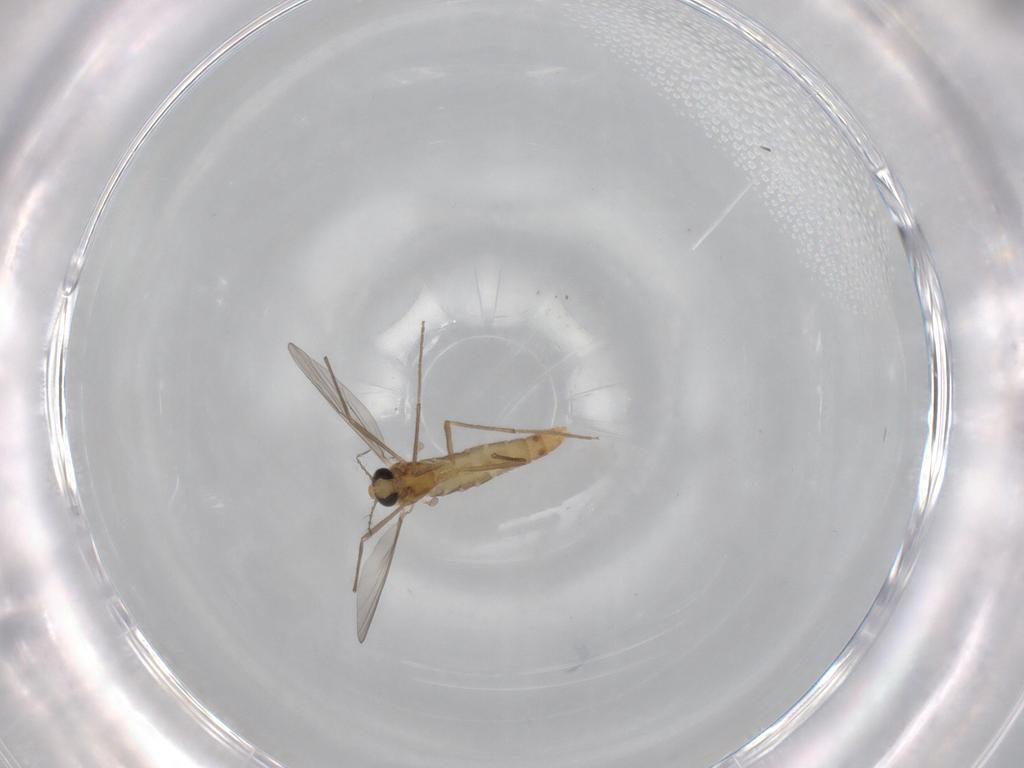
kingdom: Animalia
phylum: Arthropoda
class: Insecta
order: Diptera
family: Chironomidae
